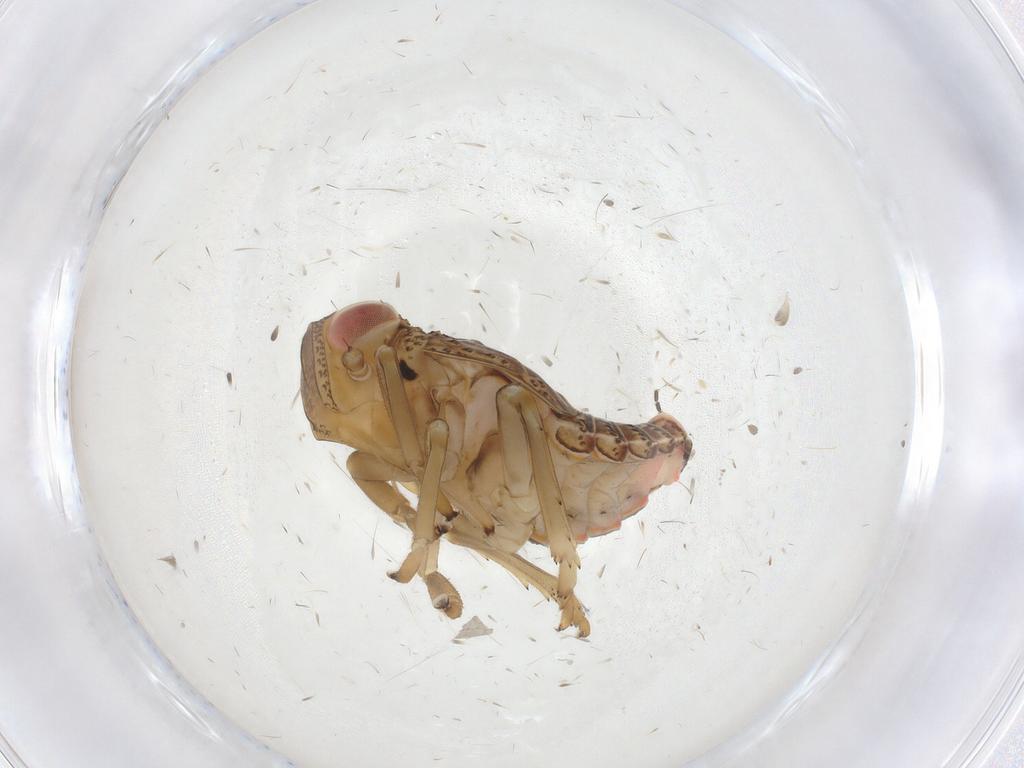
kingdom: Animalia
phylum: Arthropoda
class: Insecta
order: Hemiptera
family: Issidae
